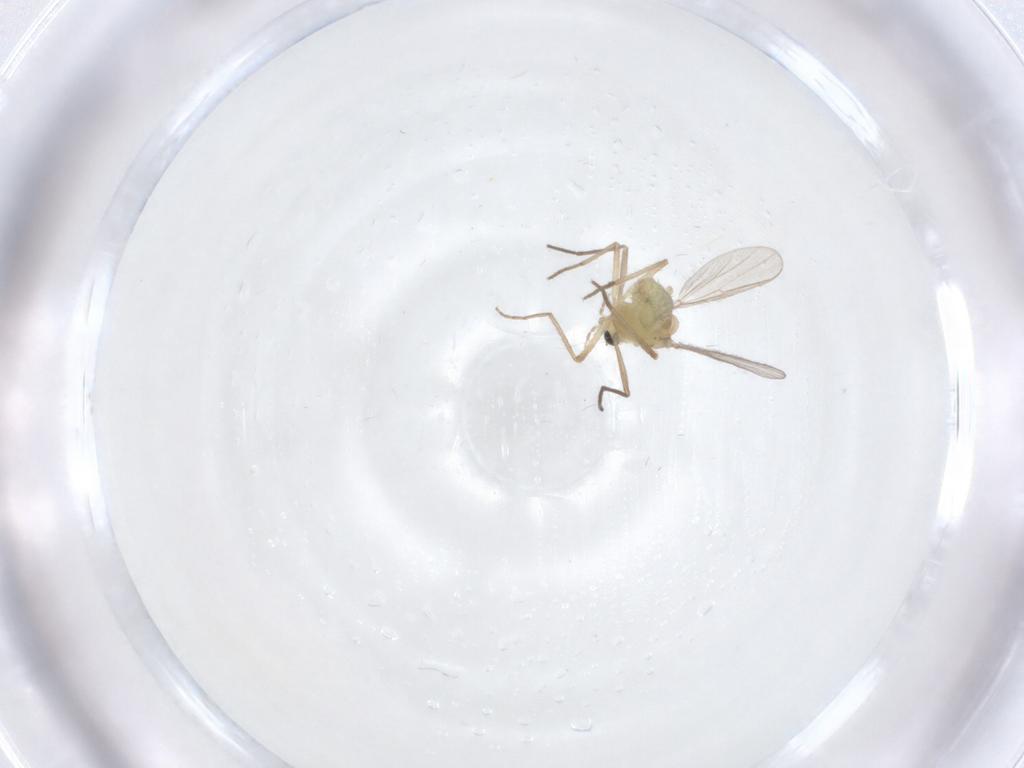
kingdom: Animalia
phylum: Arthropoda
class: Insecta
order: Diptera
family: Chironomidae
